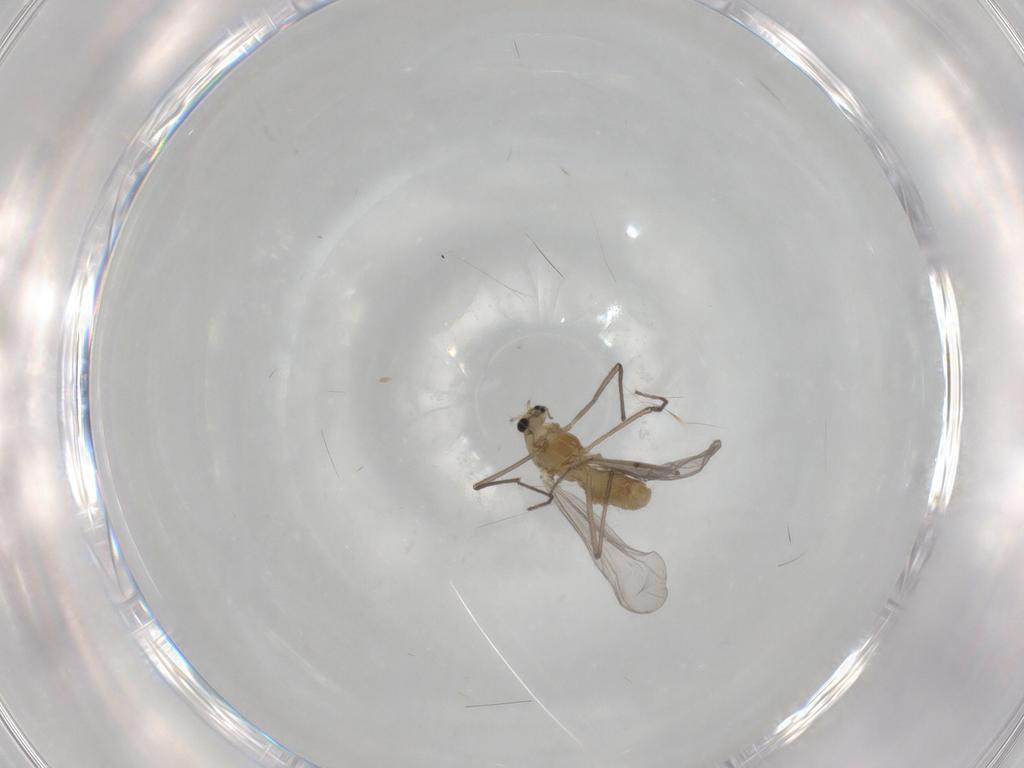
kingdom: Animalia
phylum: Arthropoda
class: Insecta
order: Diptera
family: Chironomidae
